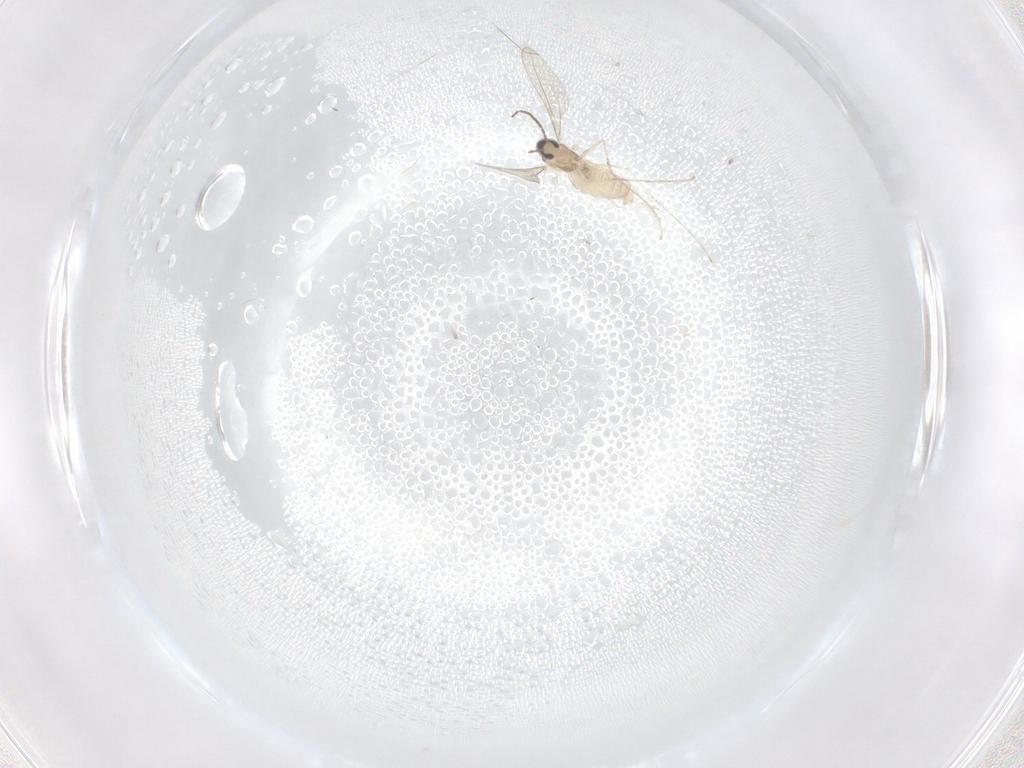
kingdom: Animalia
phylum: Arthropoda
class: Insecta
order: Diptera
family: Cecidomyiidae
